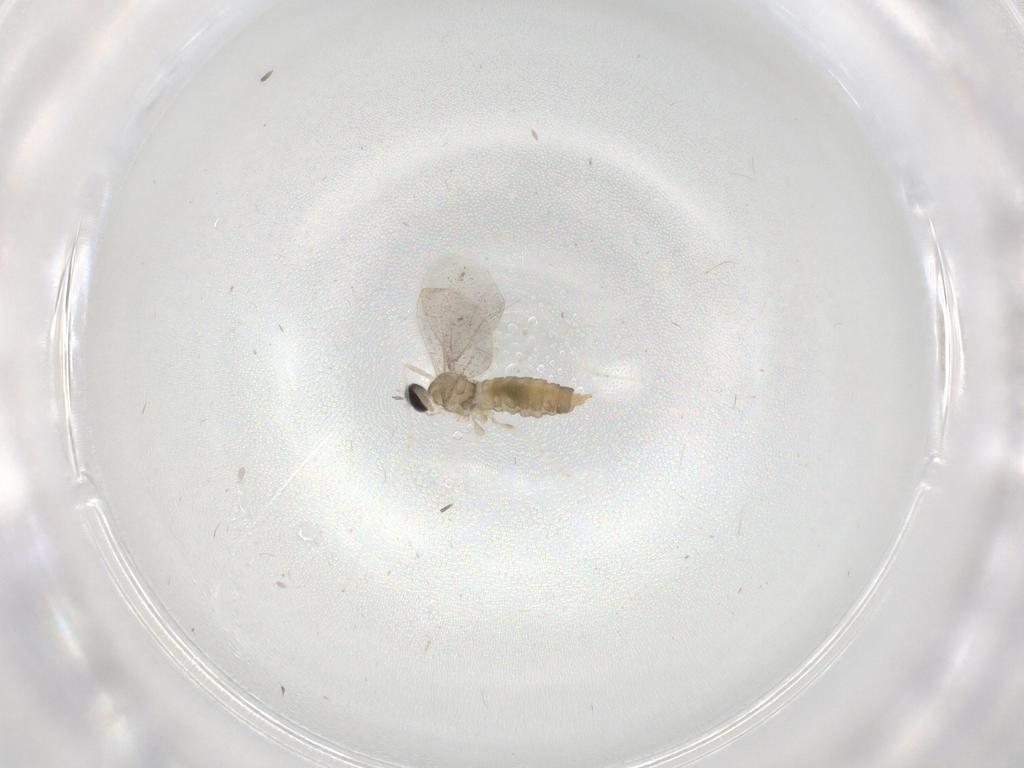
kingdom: Animalia
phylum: Arthropoda
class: Insecta
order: Diptera
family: Cecidomyiidae
